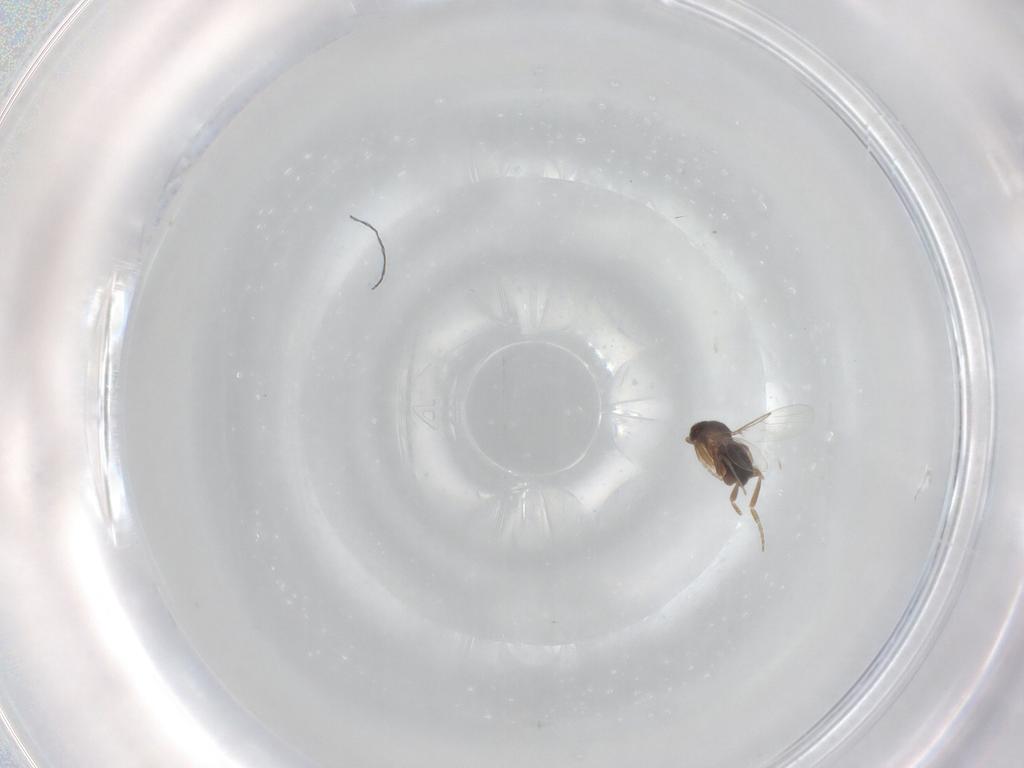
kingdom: Animalia
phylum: Arthropoda
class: Insecta
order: Diptera
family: Phoridae
